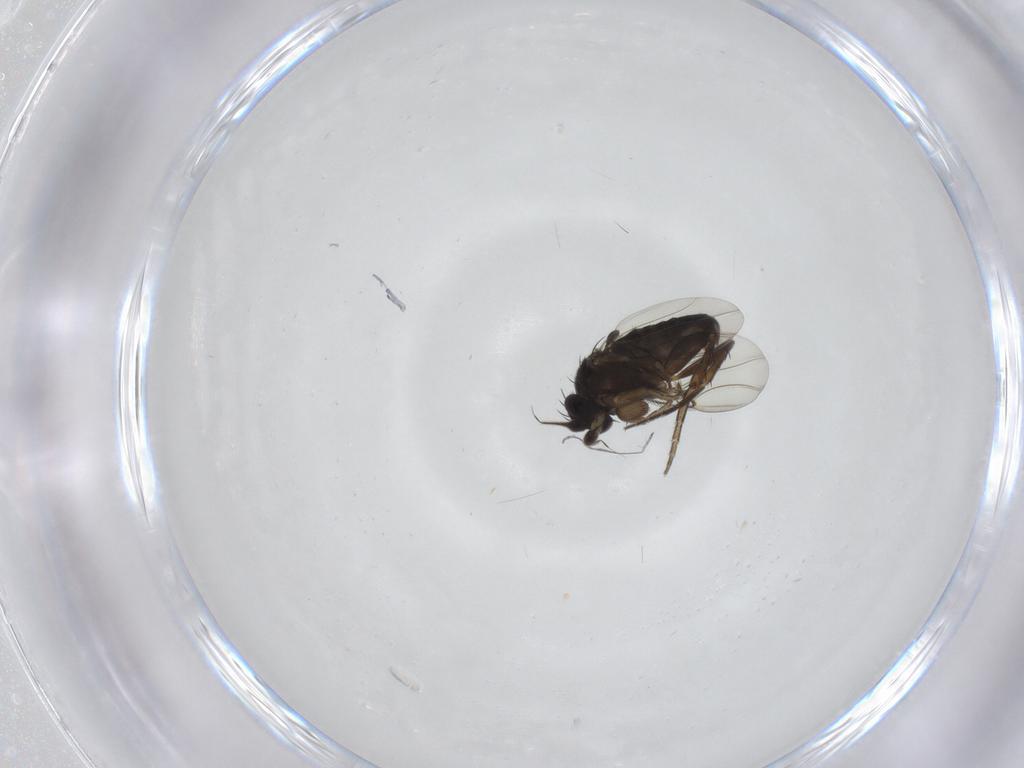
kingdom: Animalia
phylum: Arthropoda
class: Insecta
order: Diptera
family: Phoridae
